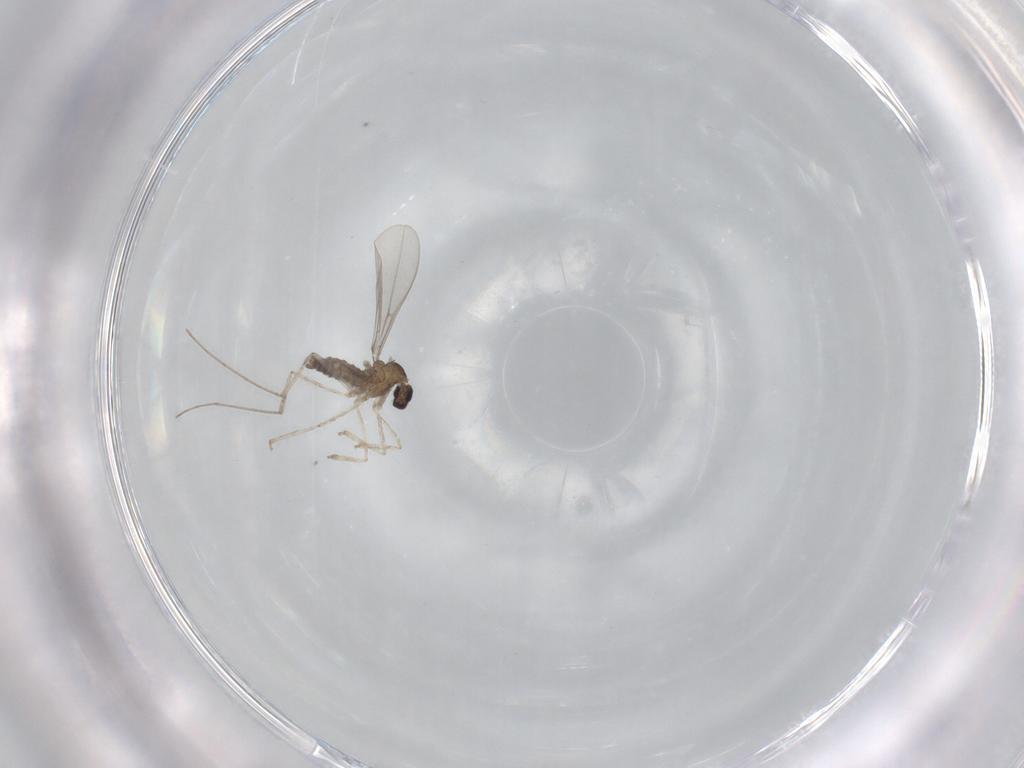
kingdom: Animalia
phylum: Arthropoda
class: Insecta
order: Diptera
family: Cecidomyiidae
